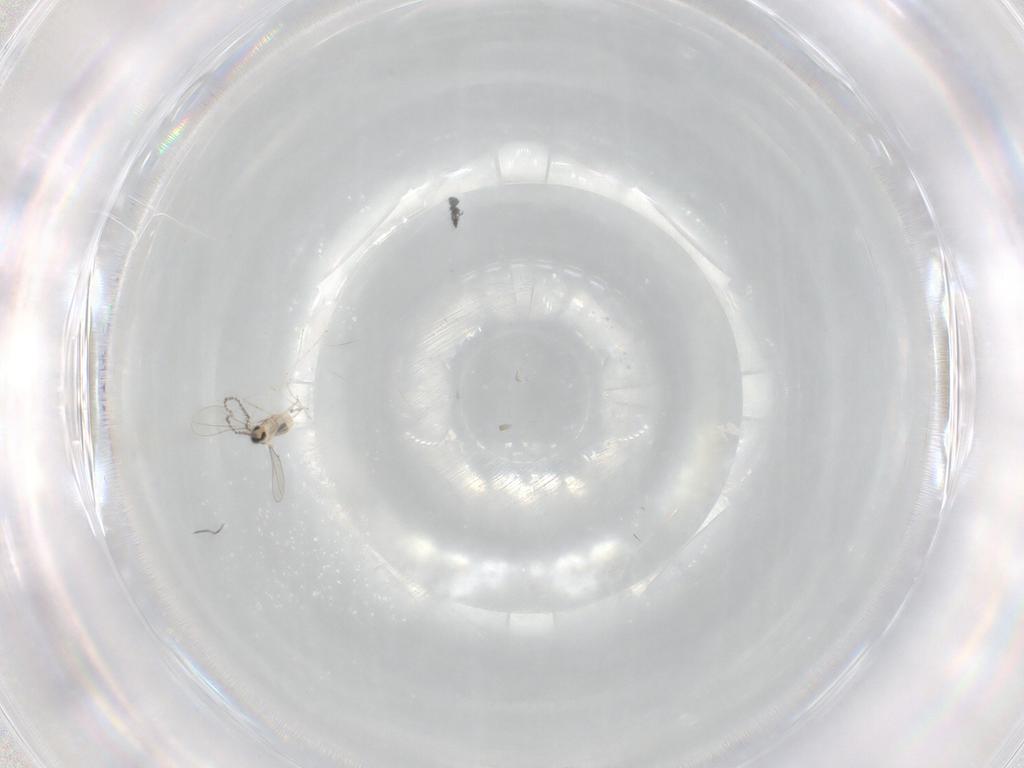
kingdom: Animalia
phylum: Arthropoda
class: Insecta
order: Diptera
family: Cecidomyiidae
